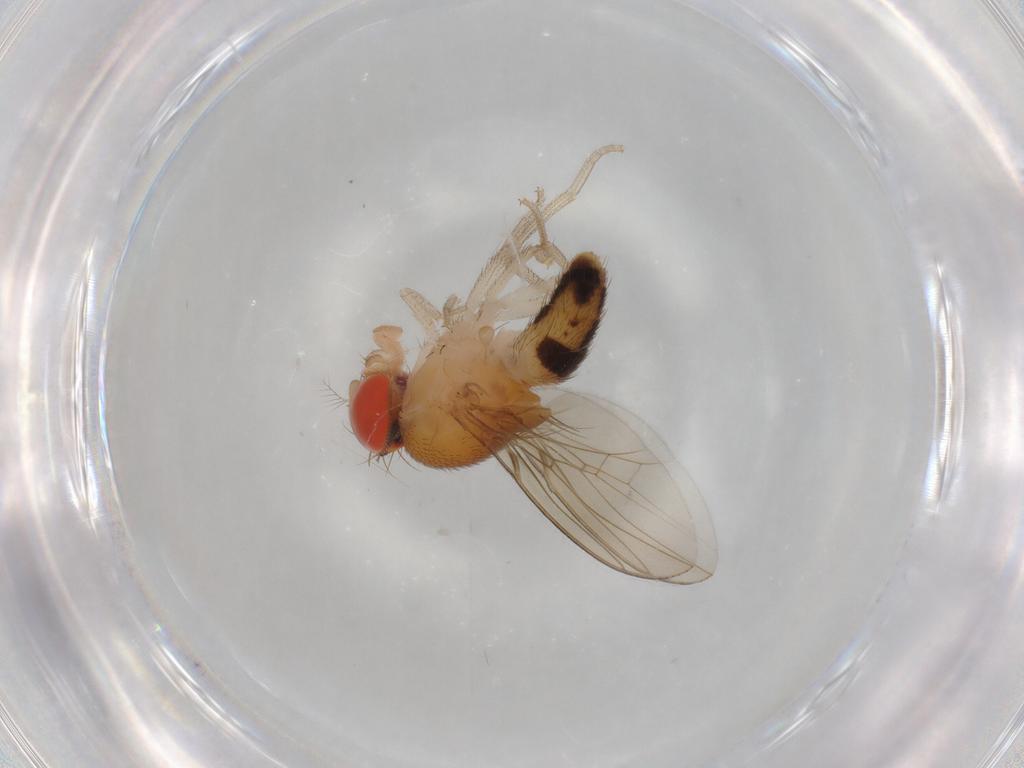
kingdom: Animalia
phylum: Arthropoda
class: Insecta
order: Diptera
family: Drosophilidae
